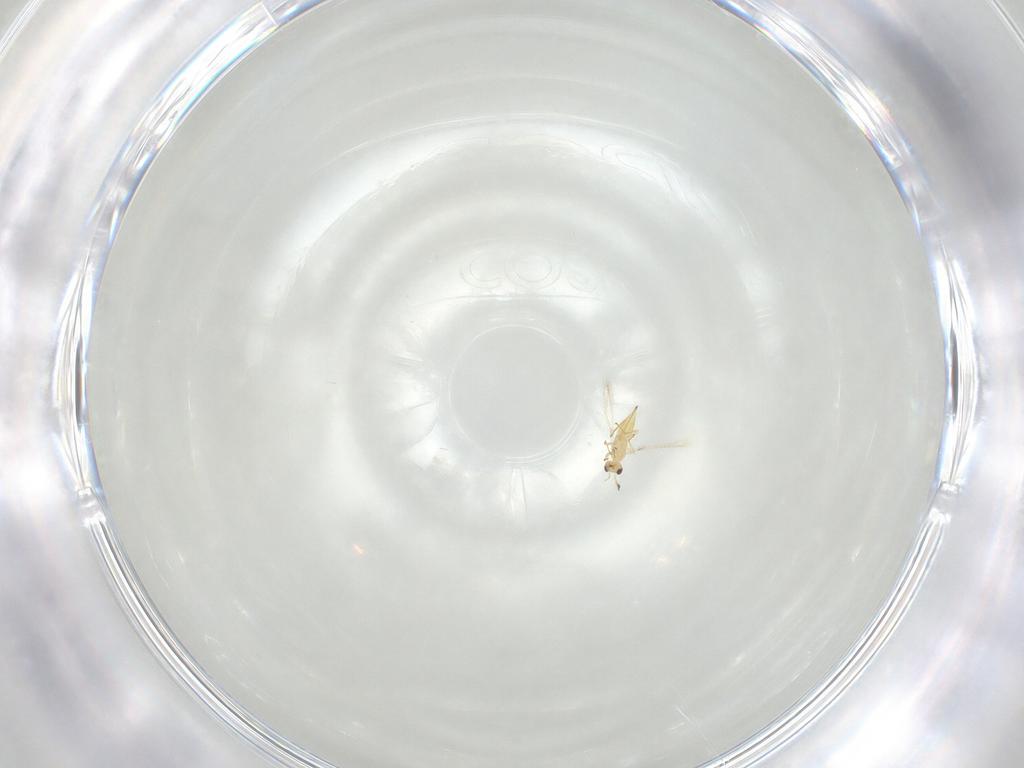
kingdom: Animalia
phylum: Arthropoda
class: Insecta
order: Hymenoptera
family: Mymaridae
